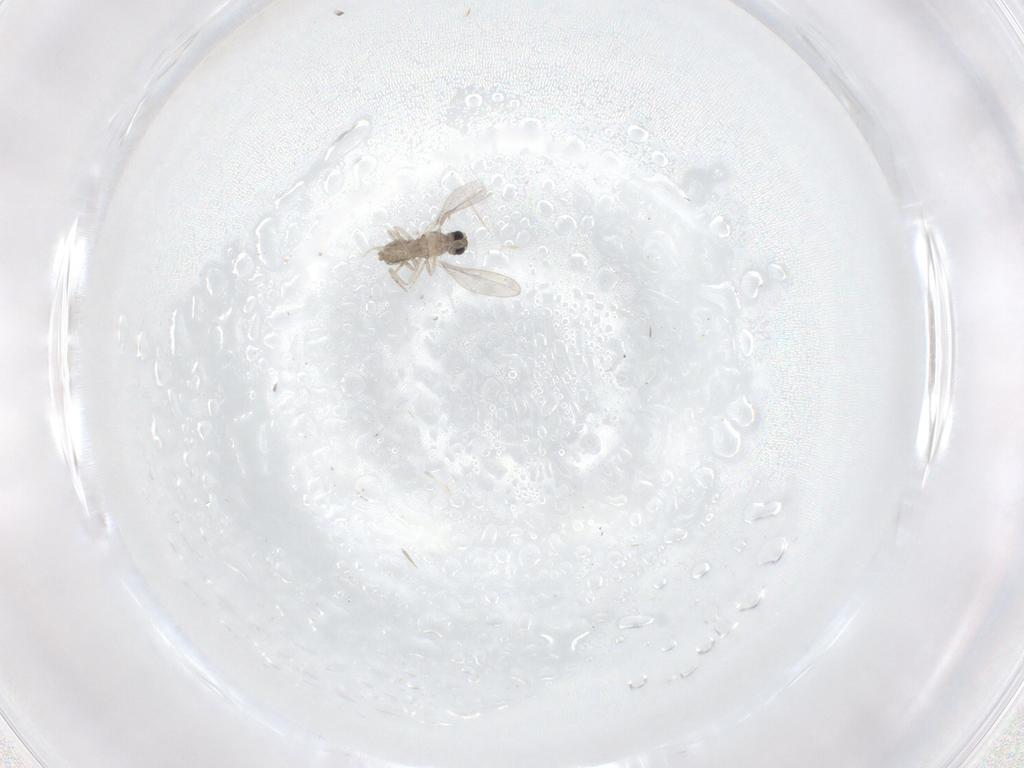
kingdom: Animalia
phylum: Arthropoda
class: Insecta
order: Diptera
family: Cecidomyiidae
